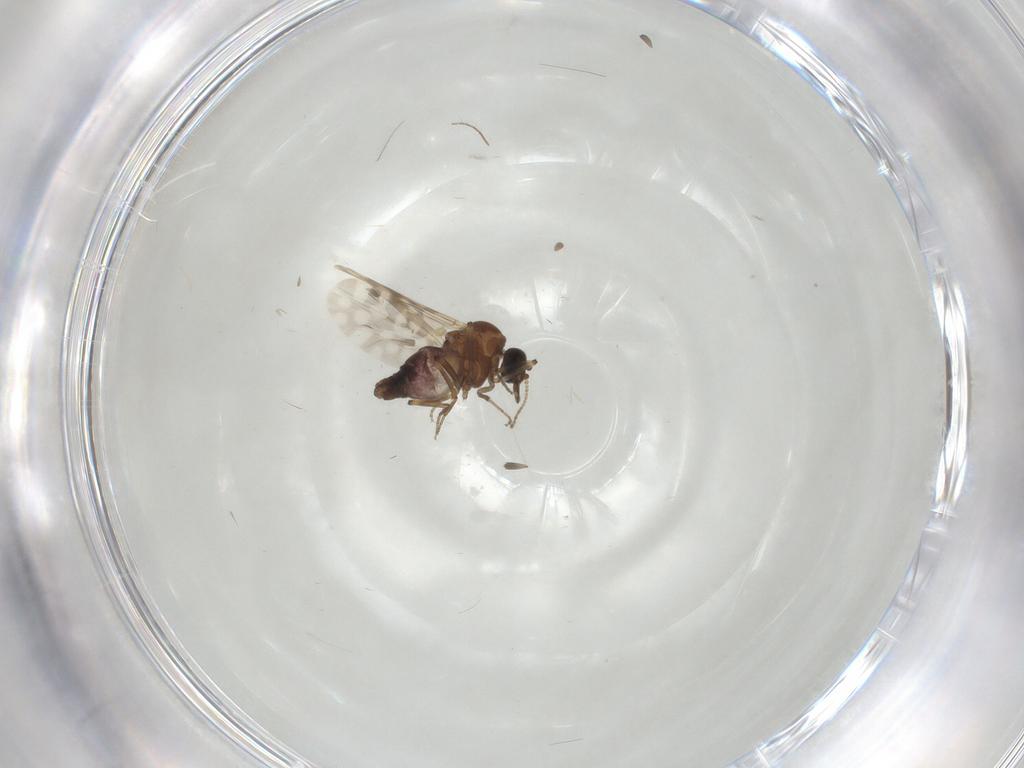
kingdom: Animalia
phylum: Arthropoda
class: Insecta
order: Diptera
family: Chironomidae
